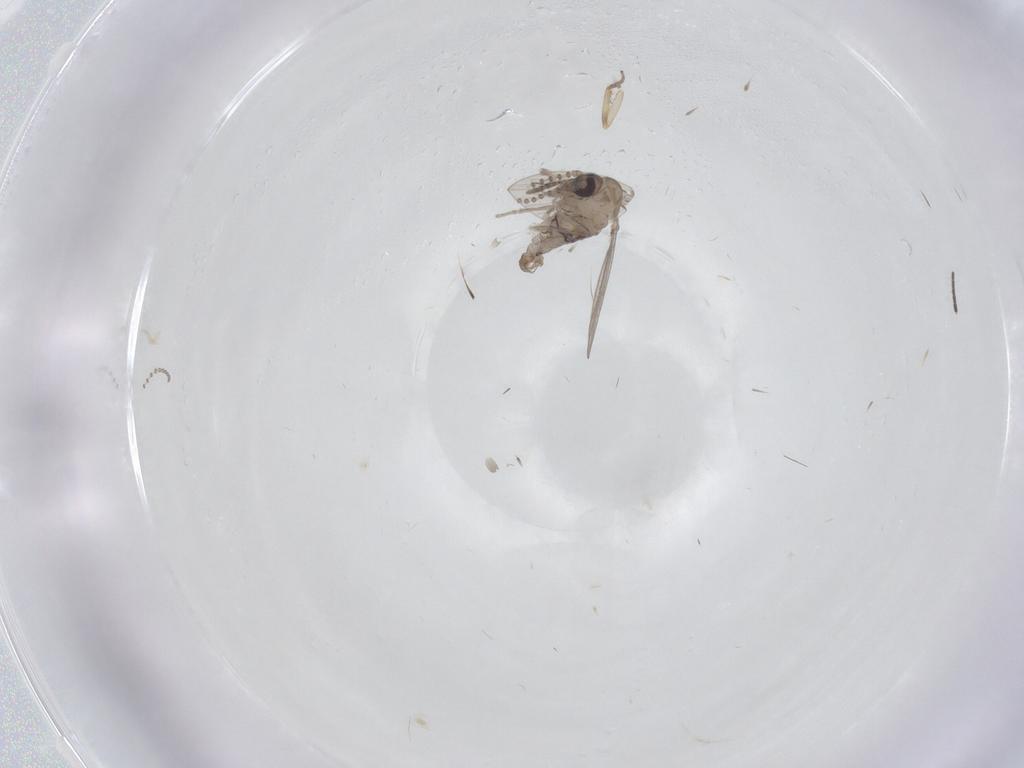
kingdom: Animalia
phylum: Arthropoda
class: Insecta
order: Diptera
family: Psychodidae
